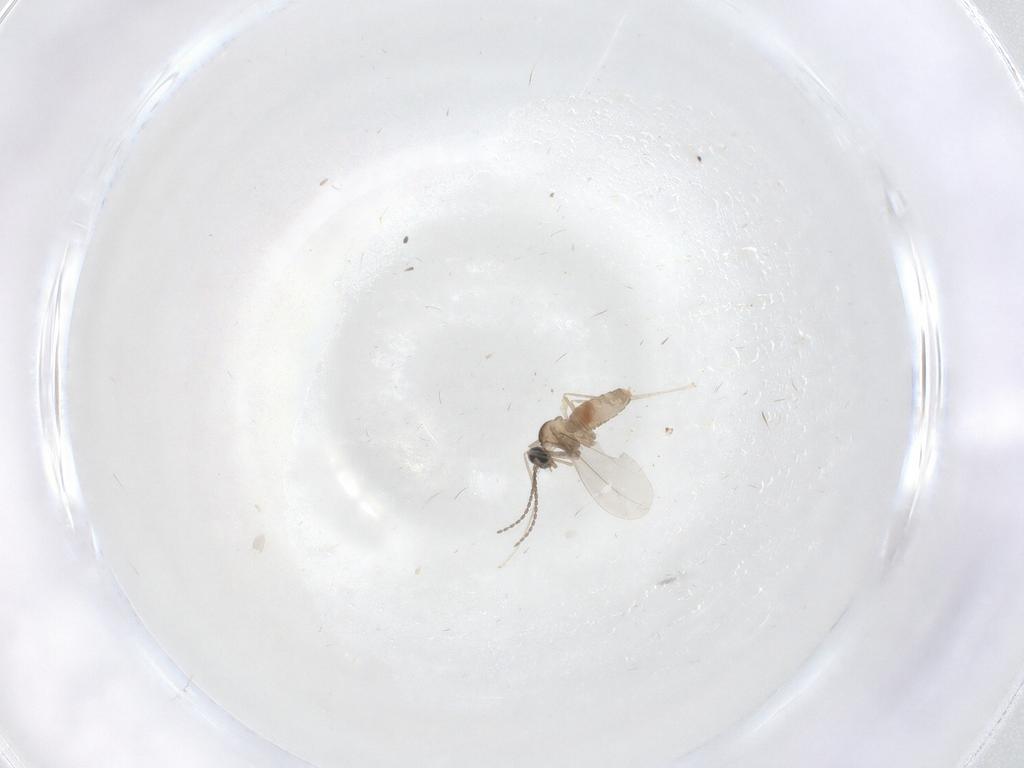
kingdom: Animalia
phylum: Arthropoda
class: Insecta
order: Diptera
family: Cecidomyiidae
